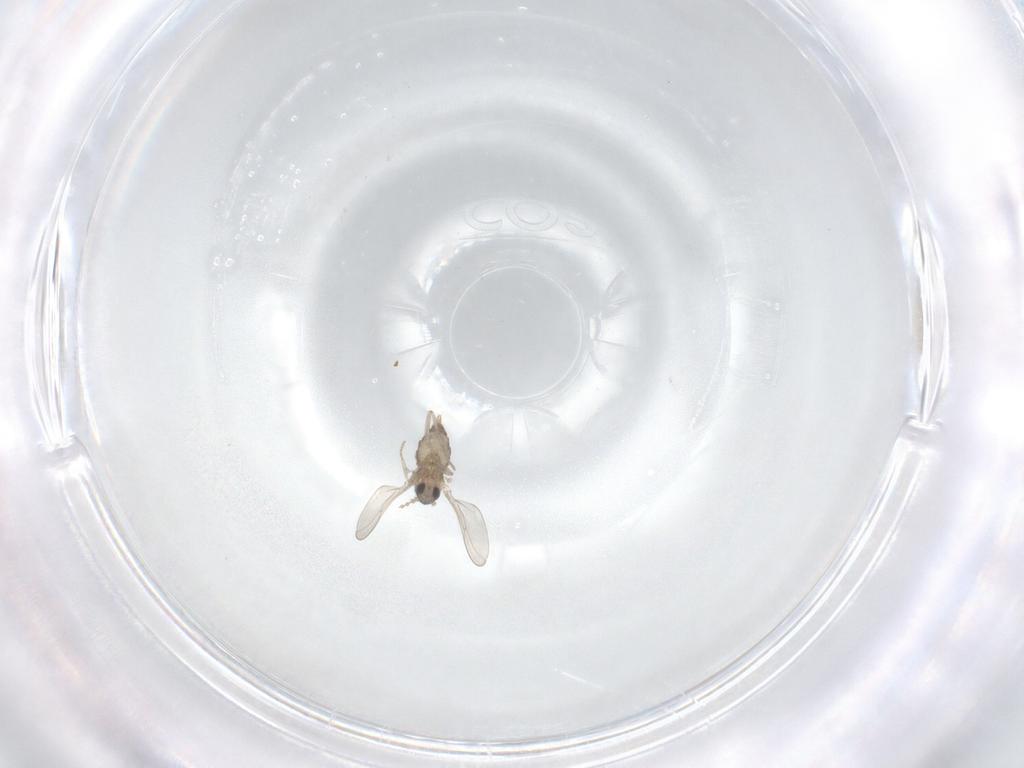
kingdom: Animalia
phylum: Arthropoda
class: Insecta
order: Diptera
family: Cecidomyiidae
